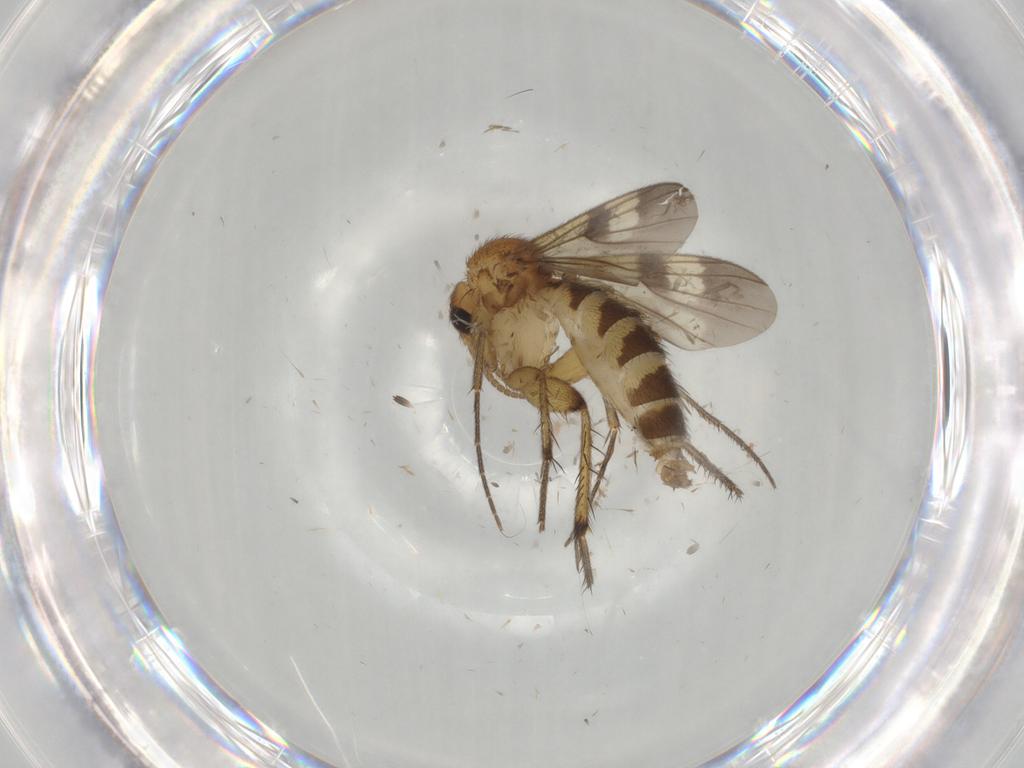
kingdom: Animalia
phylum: Arthropoda
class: Insecta
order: Diptera
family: Mycetophilidae
